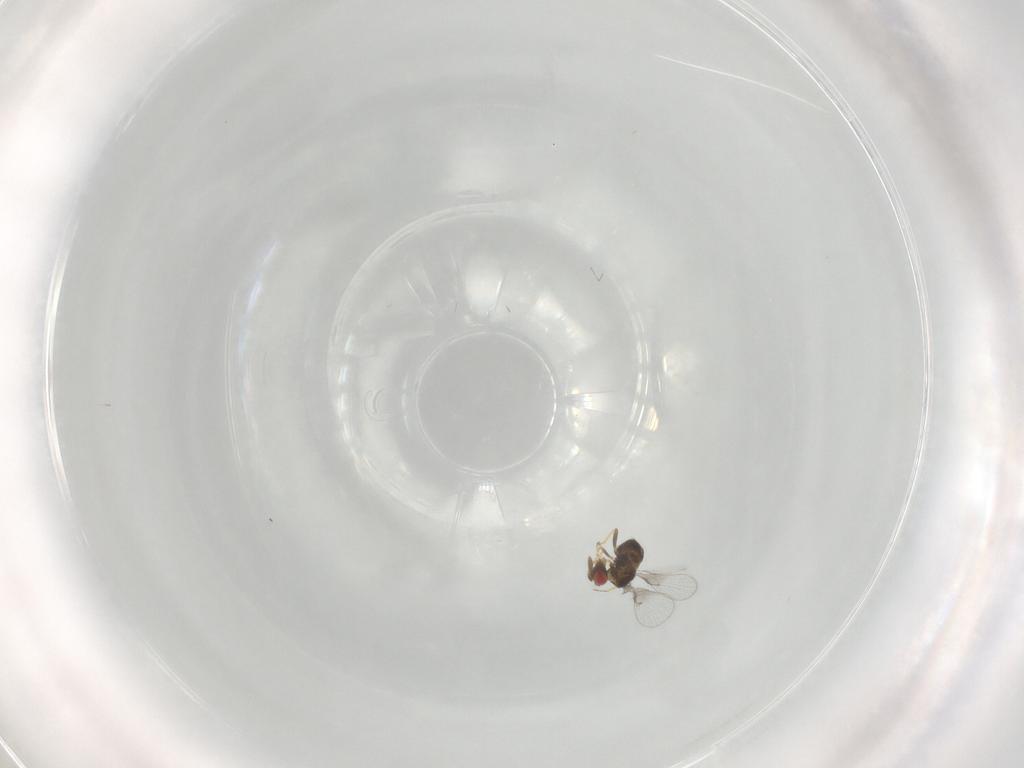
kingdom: Animalia
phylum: Arthropoda
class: Insecta
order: Hymenoptera
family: Trichogrammatidae
